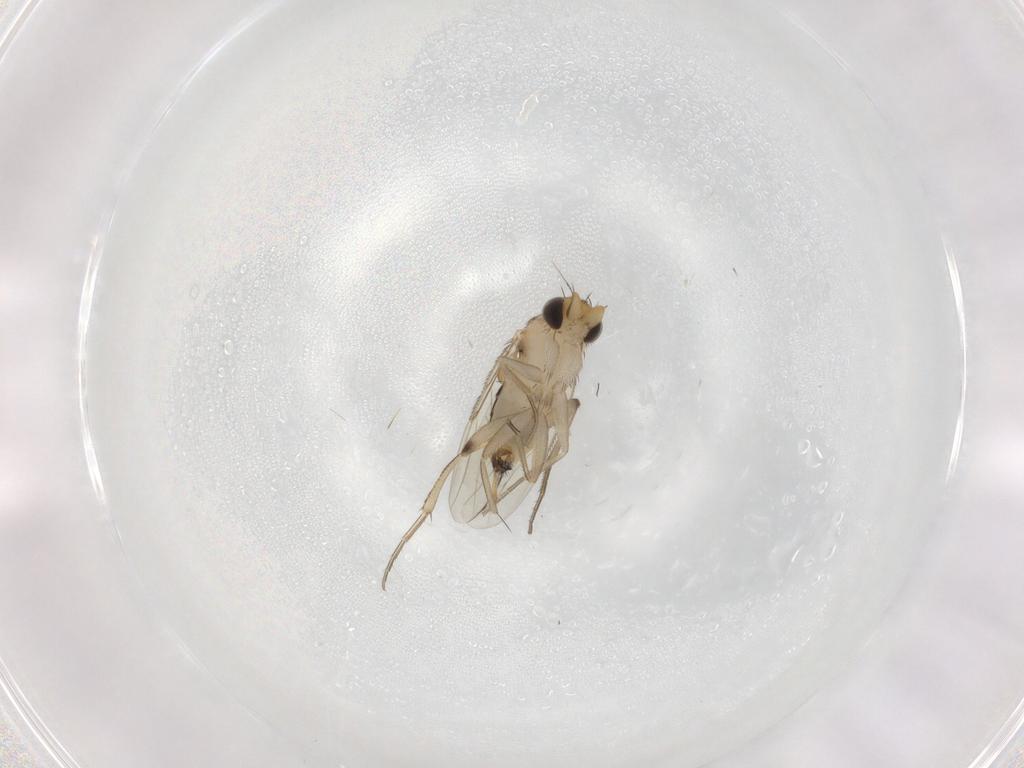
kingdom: Animalia
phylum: Arthropoda
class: Insecta
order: Diptera
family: Phoridae
